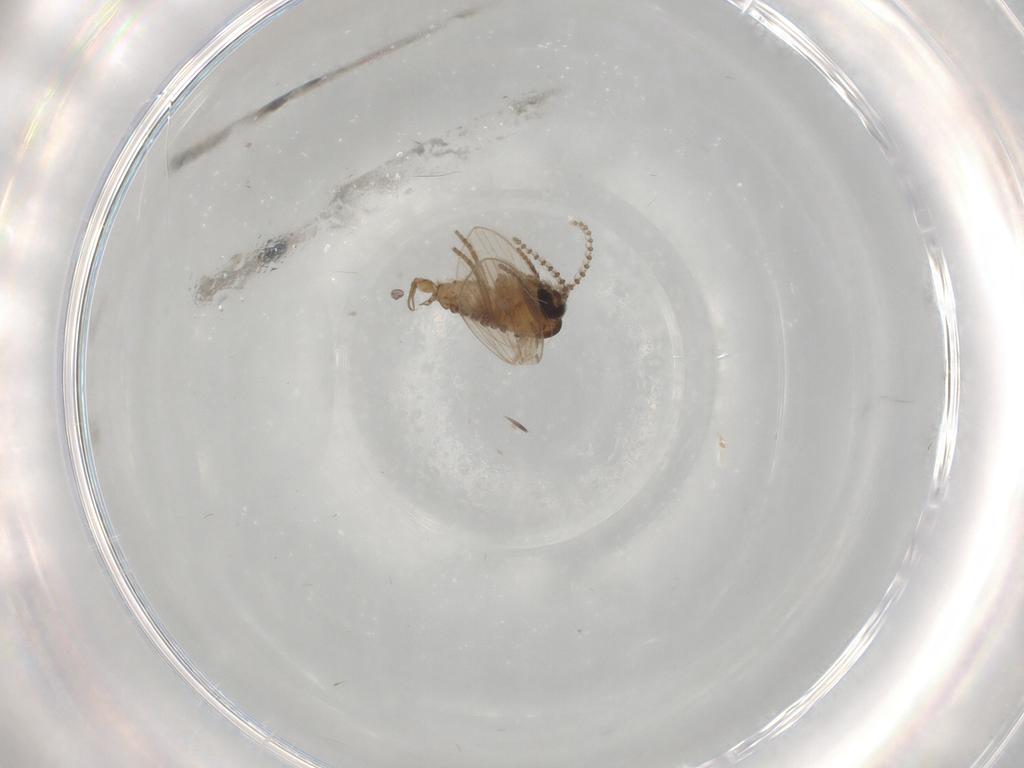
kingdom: Animalia
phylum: Arthropoda
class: Insecta
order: Diptera
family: Psychodidae
